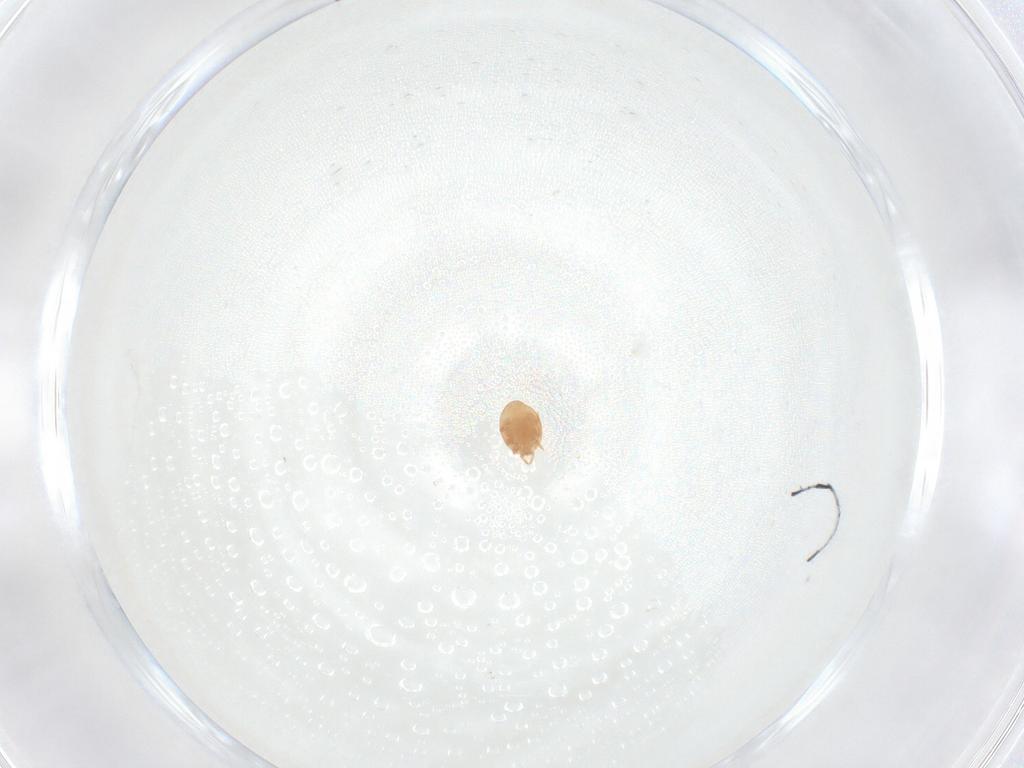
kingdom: Animalia
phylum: Arthropoda
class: Arachnida
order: Mesostigmata
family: Trematuridae
